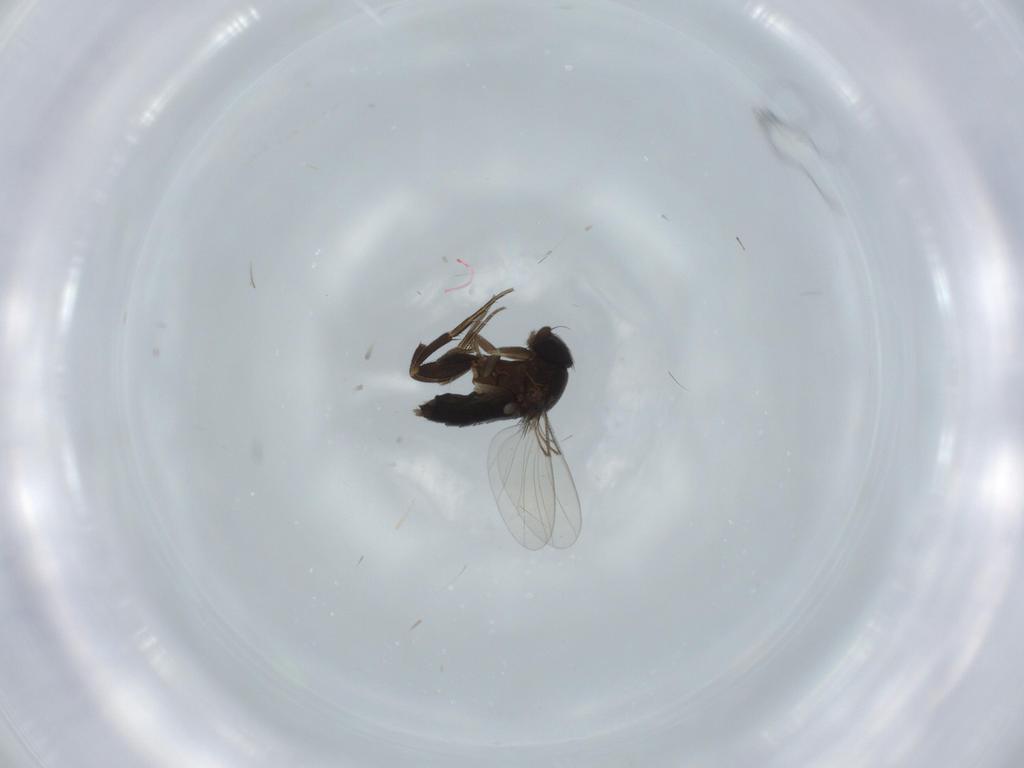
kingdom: Animalia
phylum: Arthropoda
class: Insecta
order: Diptera
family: Phoridae
